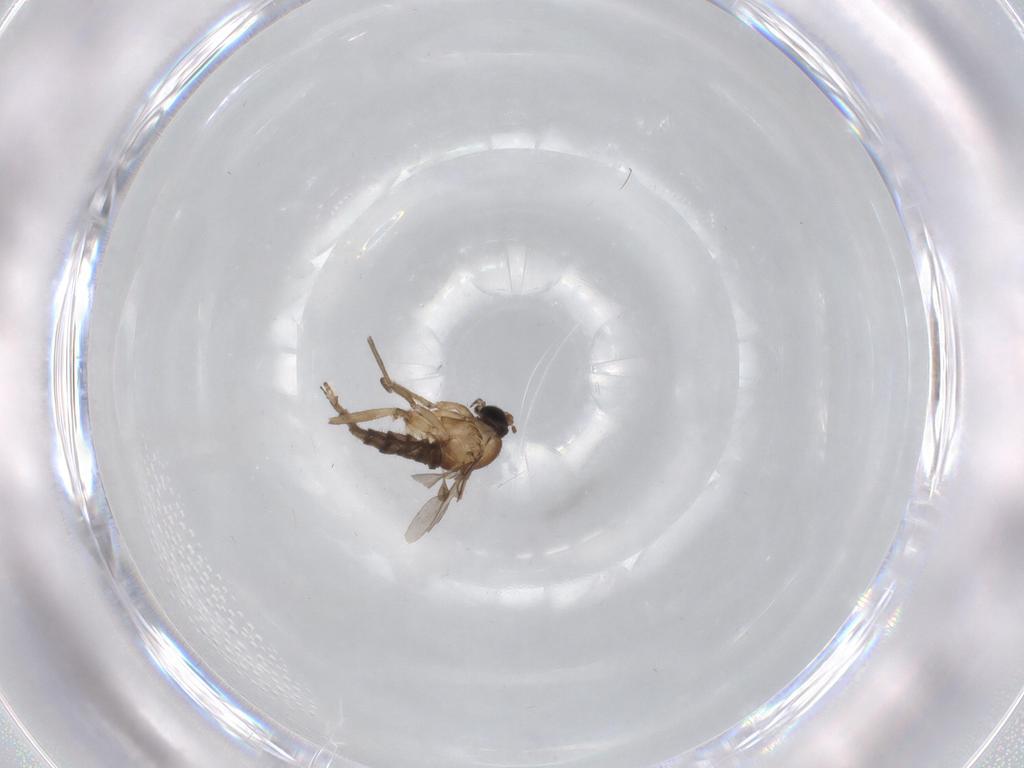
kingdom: Animalia
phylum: Arthropoda
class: Insecta
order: Diptera
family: Sciaridae
